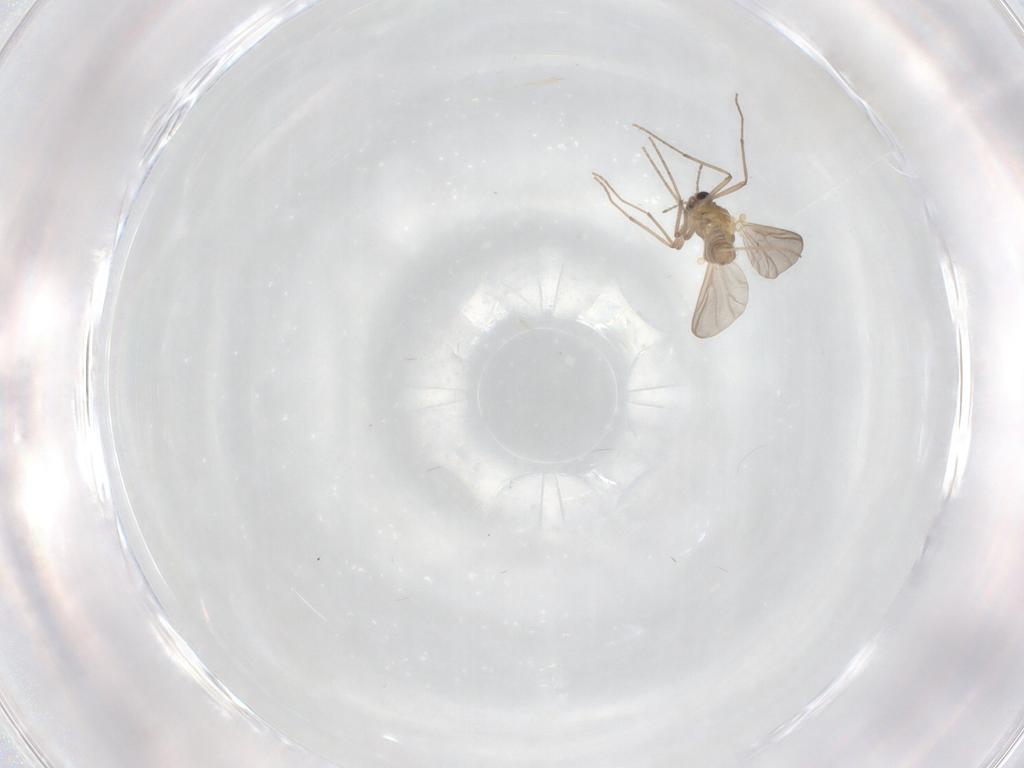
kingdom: Animalia
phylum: Arthropoda
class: Insecta
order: Diptera
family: Chironomidae
